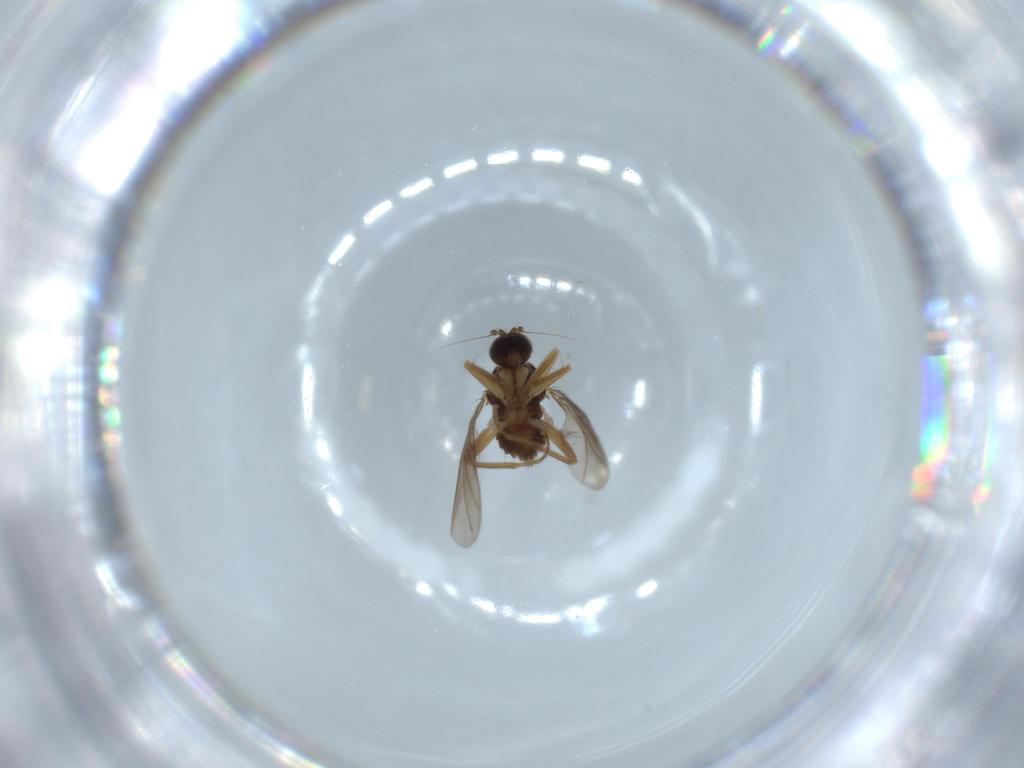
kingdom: Animalia
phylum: Arthropoda
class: Insecta
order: Diptera
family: Hybotidae
